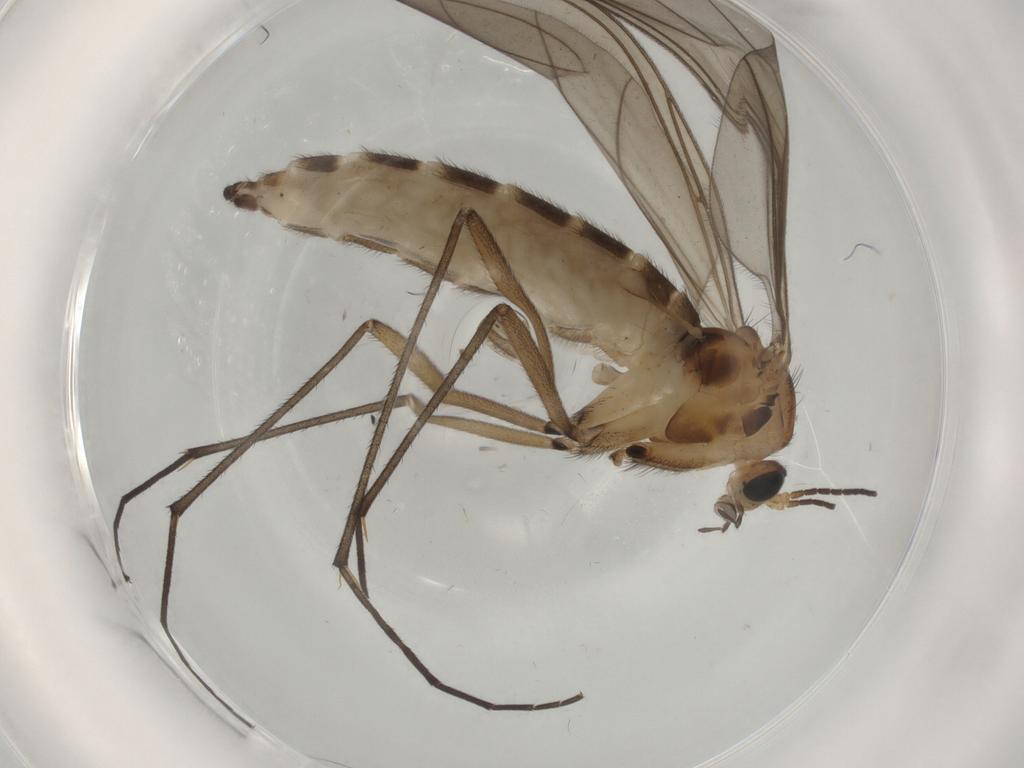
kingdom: Animalia
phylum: Arthropoda
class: Insecta
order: Diptera
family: Sciaridae
